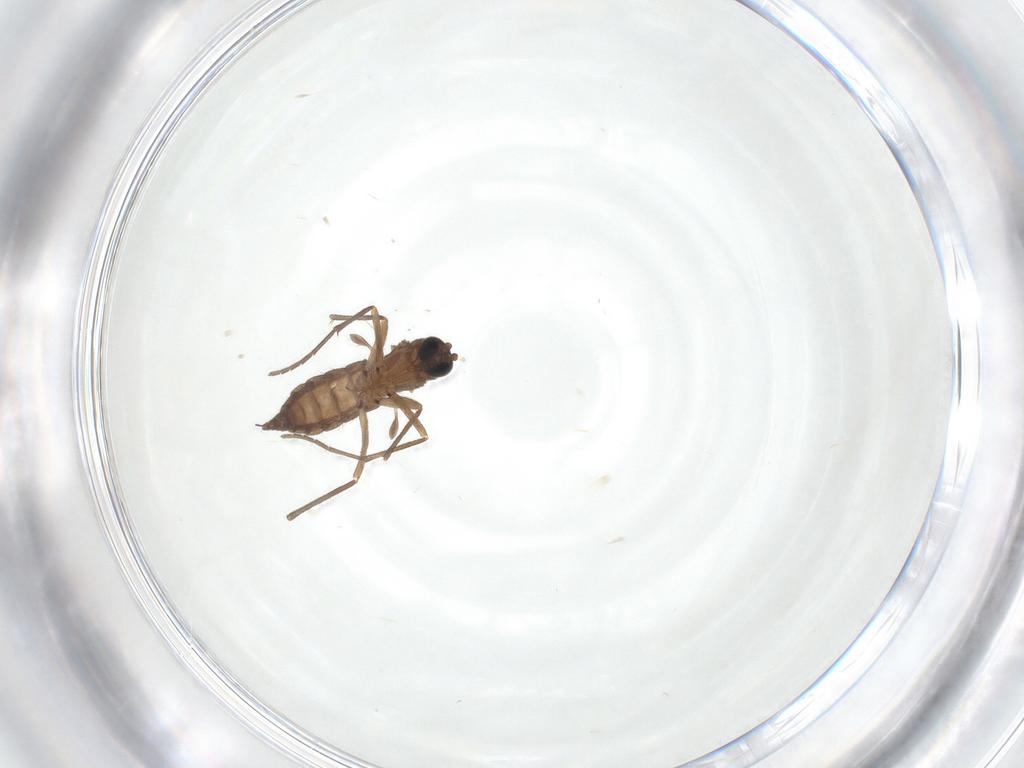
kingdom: Animalia
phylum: Arthropoda
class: Insecta
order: Diptera
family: Sciaridae
